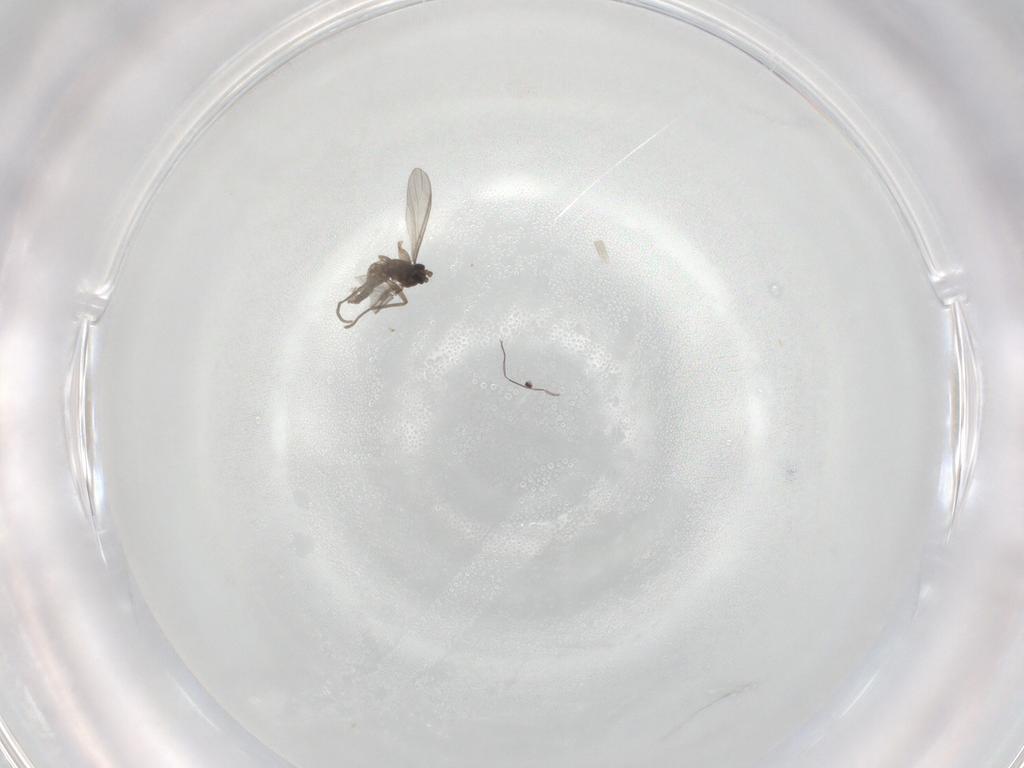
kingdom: Animalia
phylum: Arthropoda
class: Insecta
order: Diptera
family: Sciaridae
